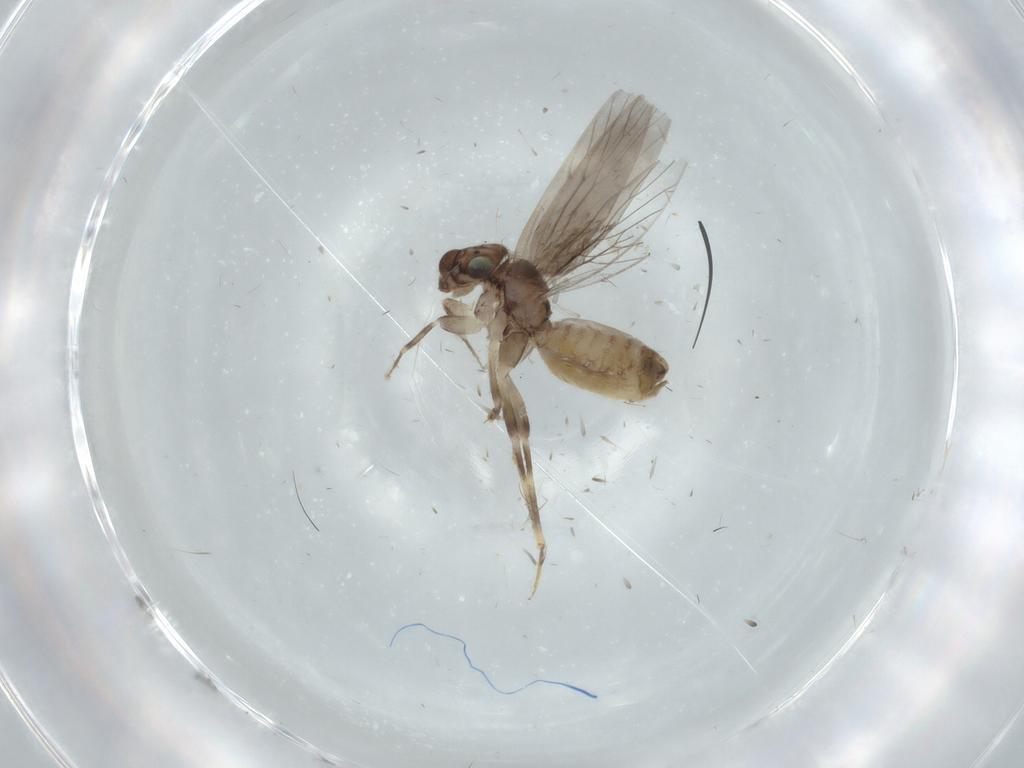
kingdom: Animalia
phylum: Arthropoda
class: Insecta
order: Psocodea
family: Lepidopsocidae
